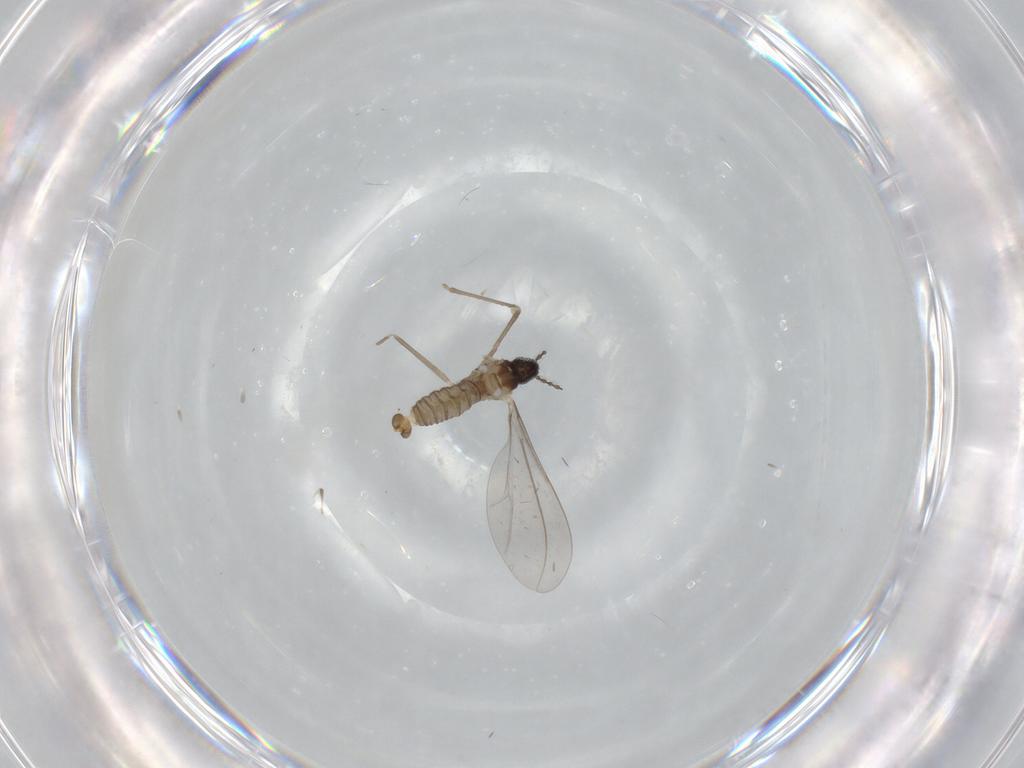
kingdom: Animalia
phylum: Arthropoda
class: Insecta
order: Diptera
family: Cecidomyiidae
